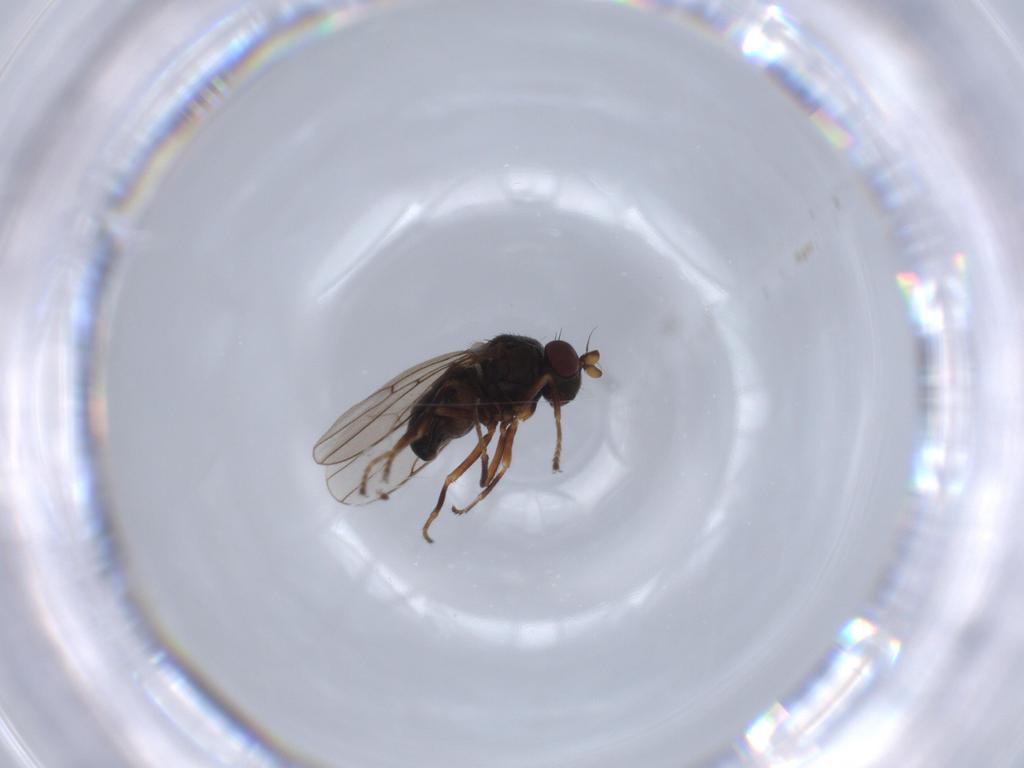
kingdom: Animalia
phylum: Arthropoda
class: Insecta
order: Diptera
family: Ephydridae
